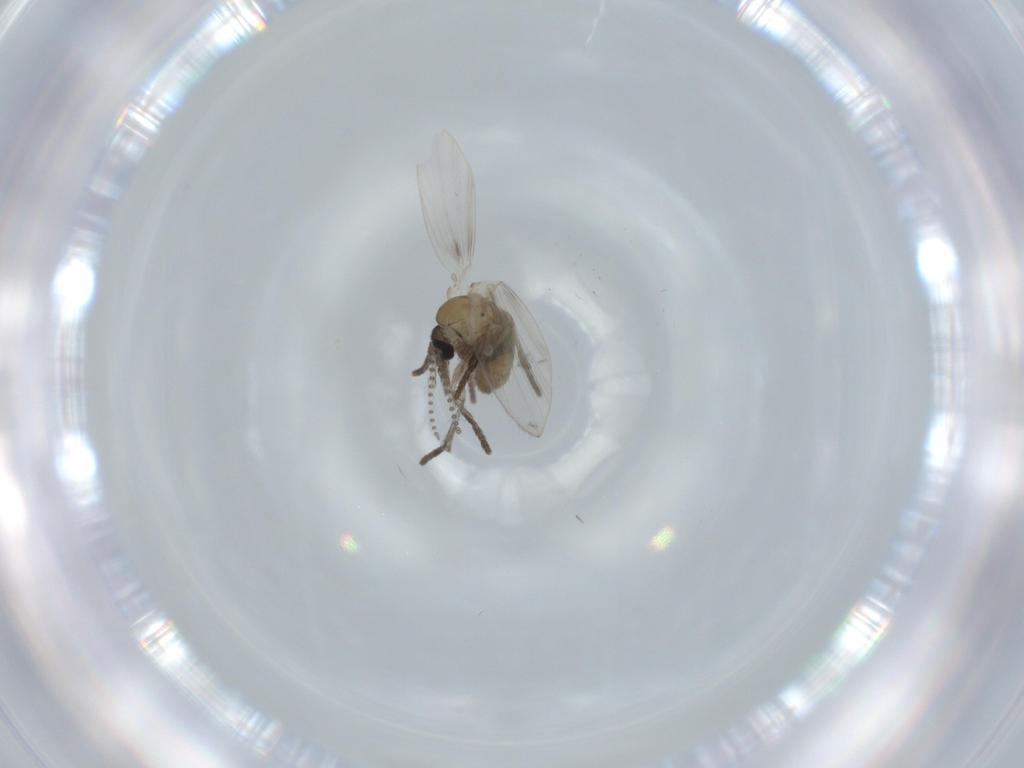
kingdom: Animalia
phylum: Arthropoda
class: Insecta
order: Diptera
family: Psychodidae
